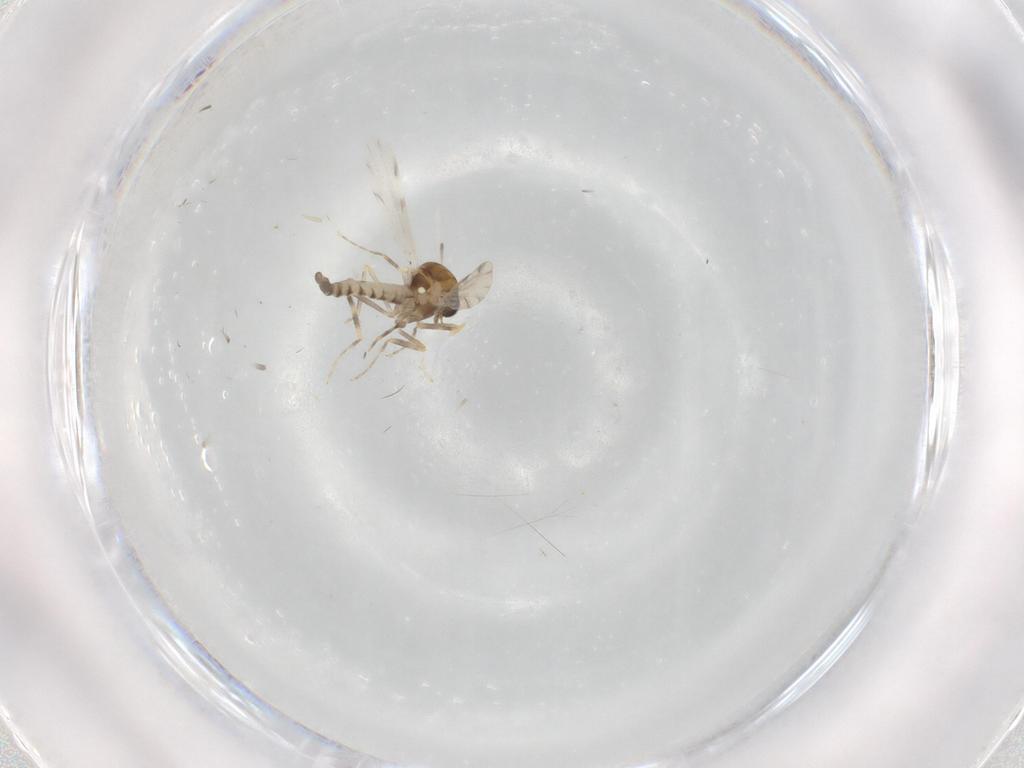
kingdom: Animalia
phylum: Arthropoda
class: Insecta
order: Diptera
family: Ceratopogonidae
